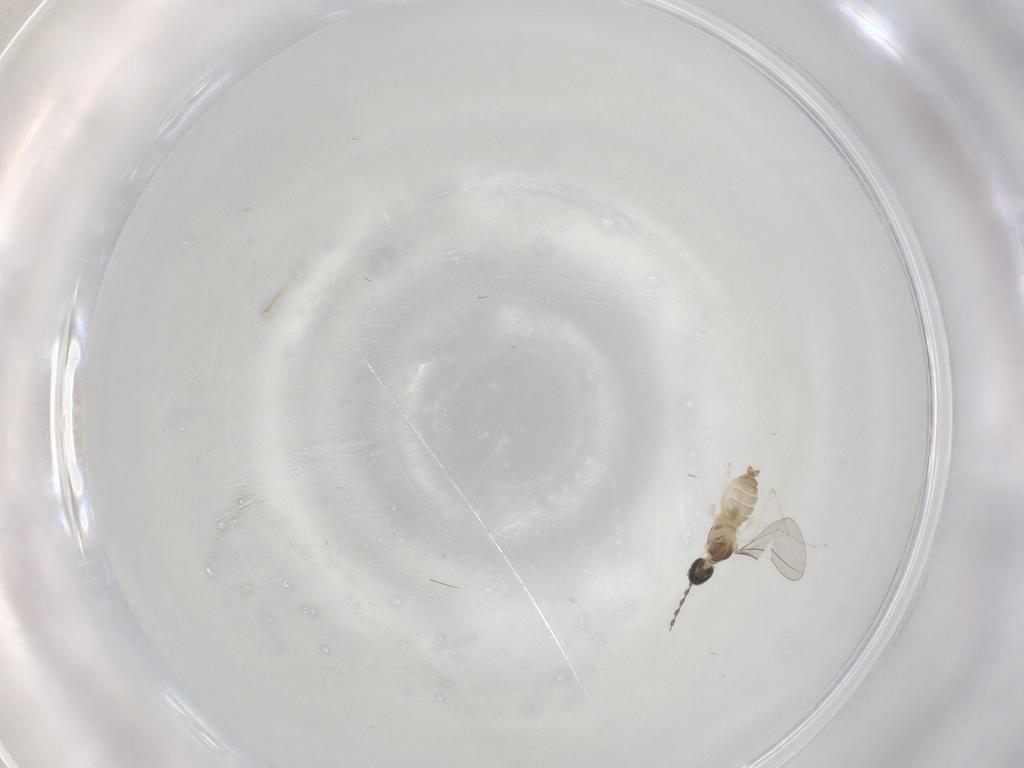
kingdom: Animalia
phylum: Arthropoda
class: Insecta
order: Diptera
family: Cecidomyiidae
